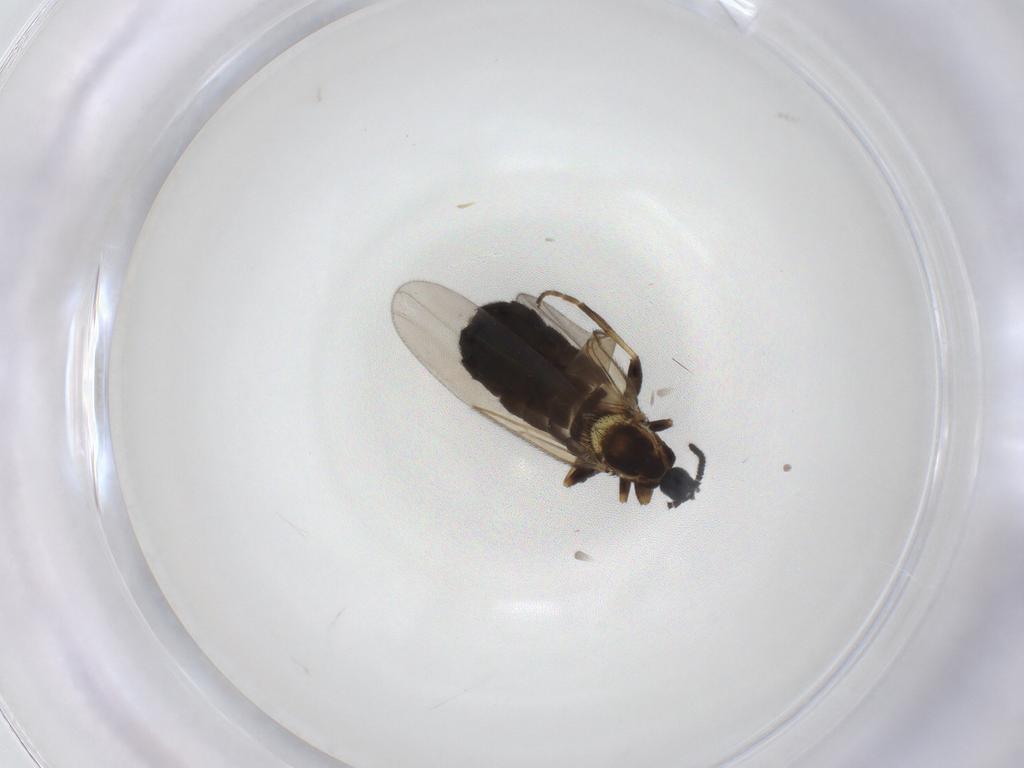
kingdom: Animalia
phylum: Arthropoda
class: Insecta
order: Diptera
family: Scatopsidae
